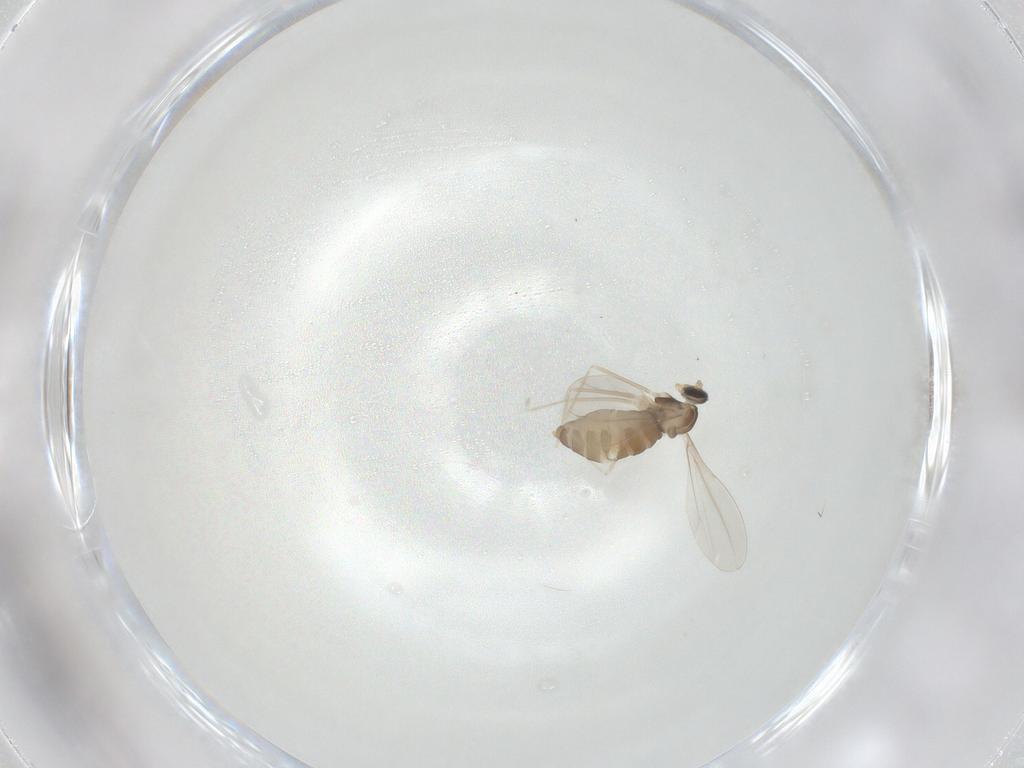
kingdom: Animalia
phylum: Arthropoda
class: Insecta
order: Diptera
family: Cecidomyiidae
